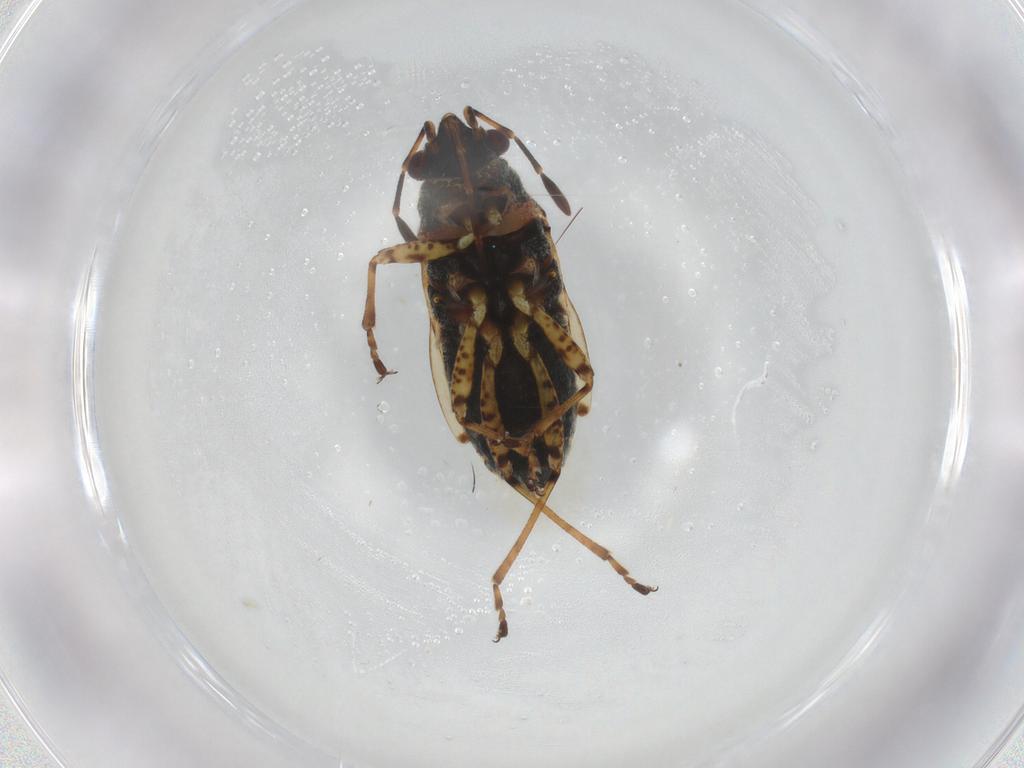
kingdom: Animalia
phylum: Arthropoda
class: Insecta
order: Hemiptera
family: Lygaeidae
